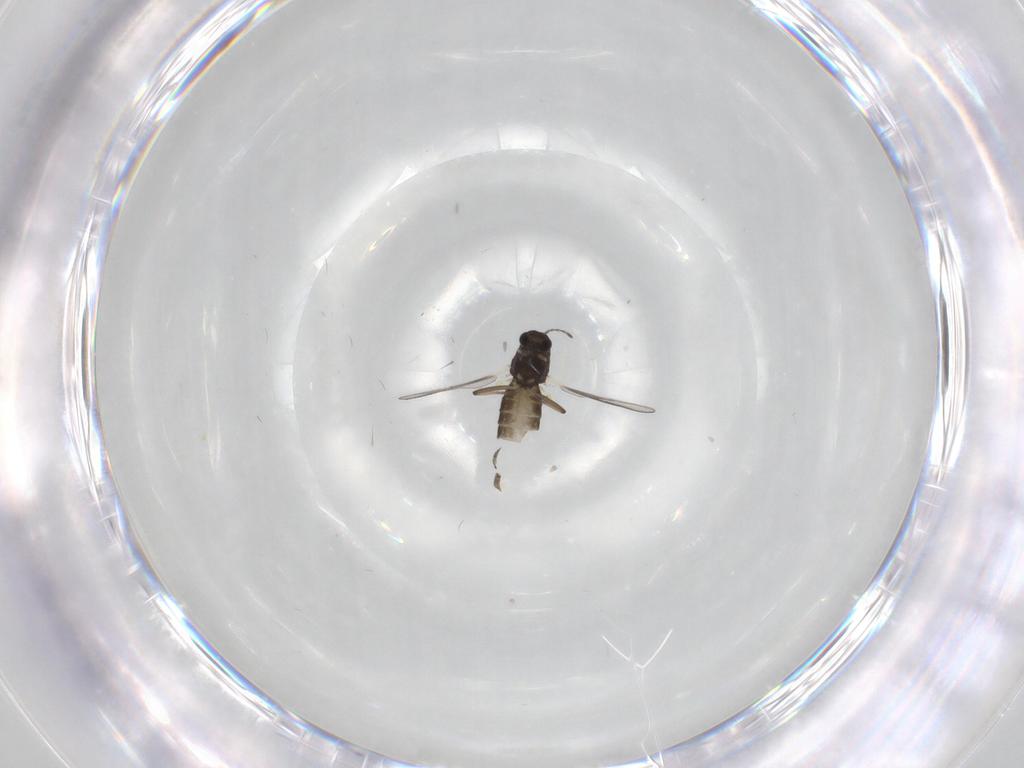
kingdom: Animalia
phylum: Arthropoda
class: Insecta
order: Diptera
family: Chironomidae
